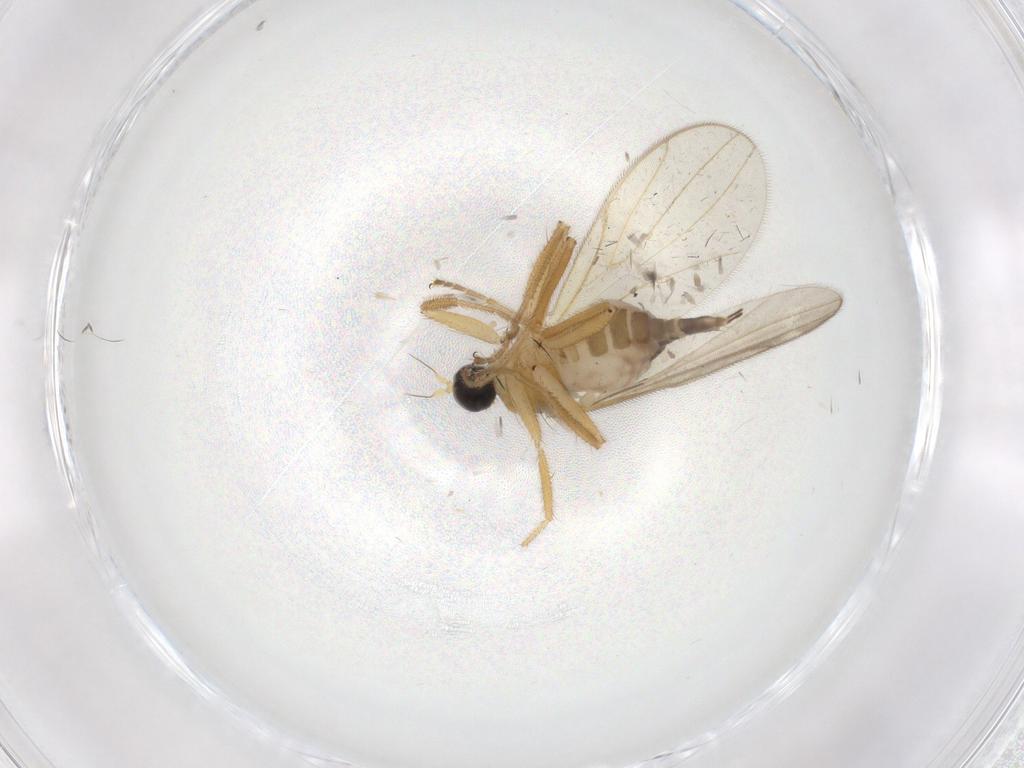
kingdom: Animalia
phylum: Arthropoda
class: Insecta
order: Diptera
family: Hybotidae
